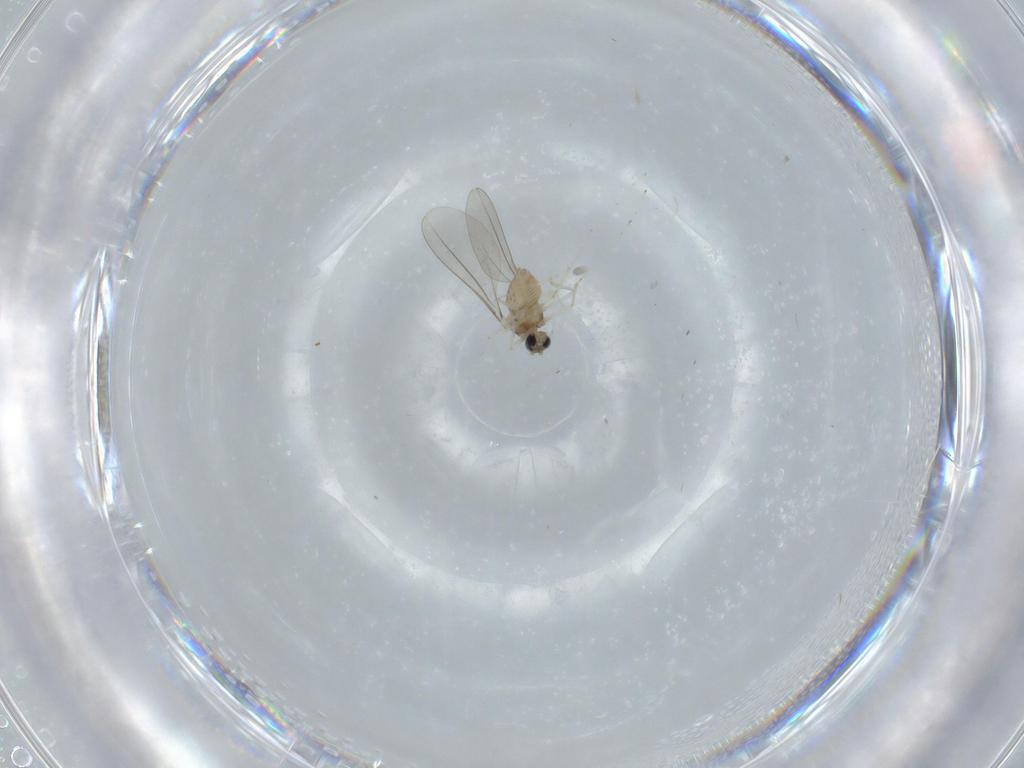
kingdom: Animalia
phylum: Arthropoda
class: Insecta
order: Diptera
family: Cecidomyiidae
